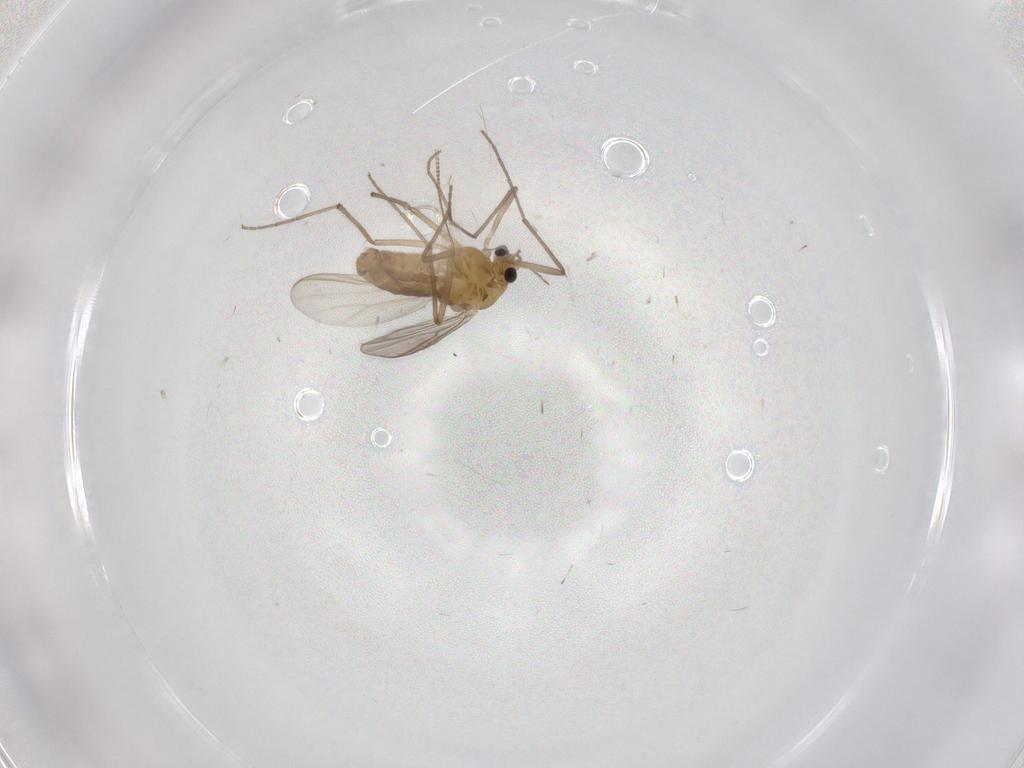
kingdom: Animalia
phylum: Arthropoda
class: Insecta
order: Diptera
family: Chironomidae
